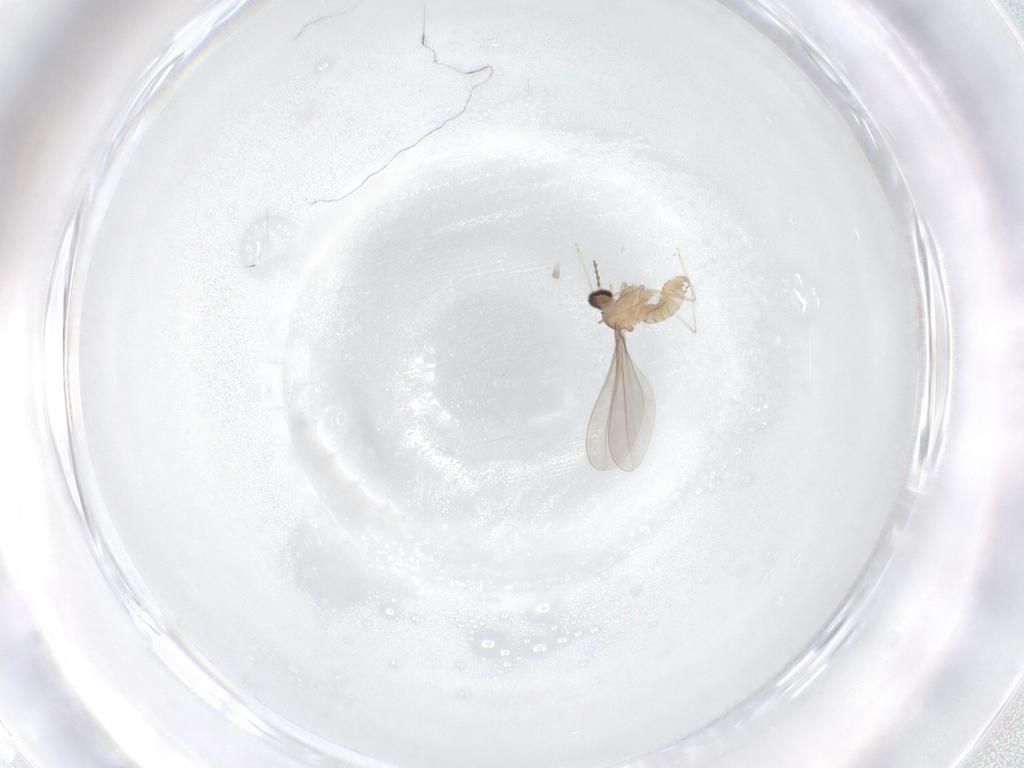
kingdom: Animalia
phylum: Arthropoda
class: Insecta
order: Diptera
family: Cecidomyiidae
